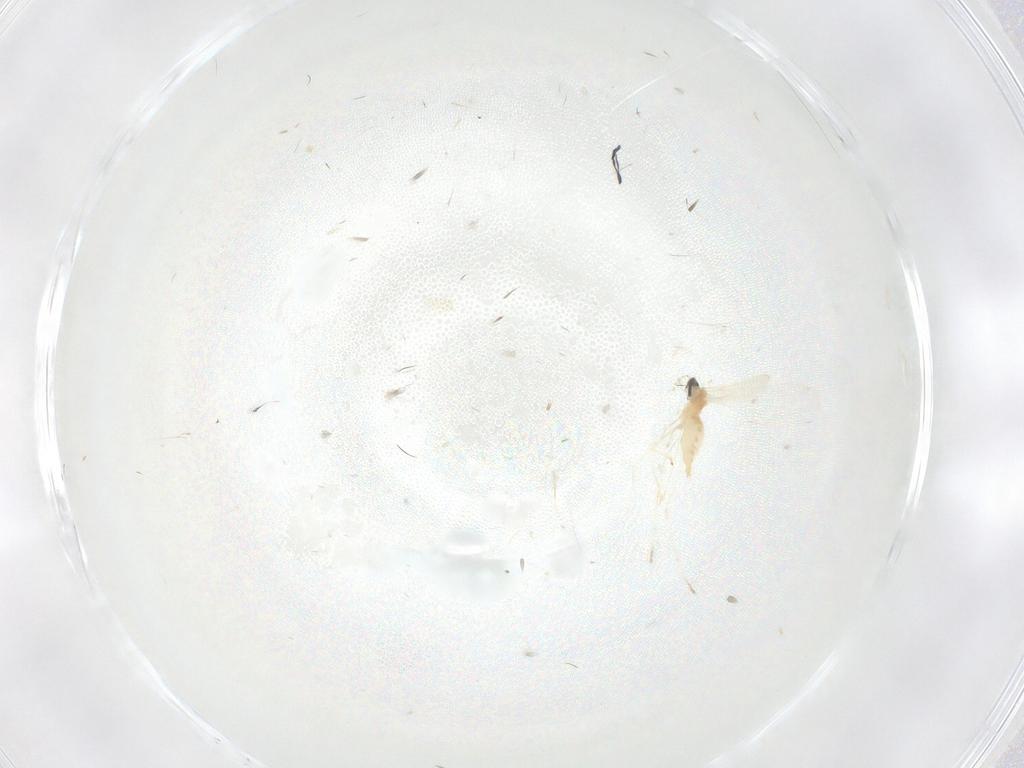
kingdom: Animalia
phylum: Arthropoda
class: Insecta
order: Diptera
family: Cecidomyiidae
